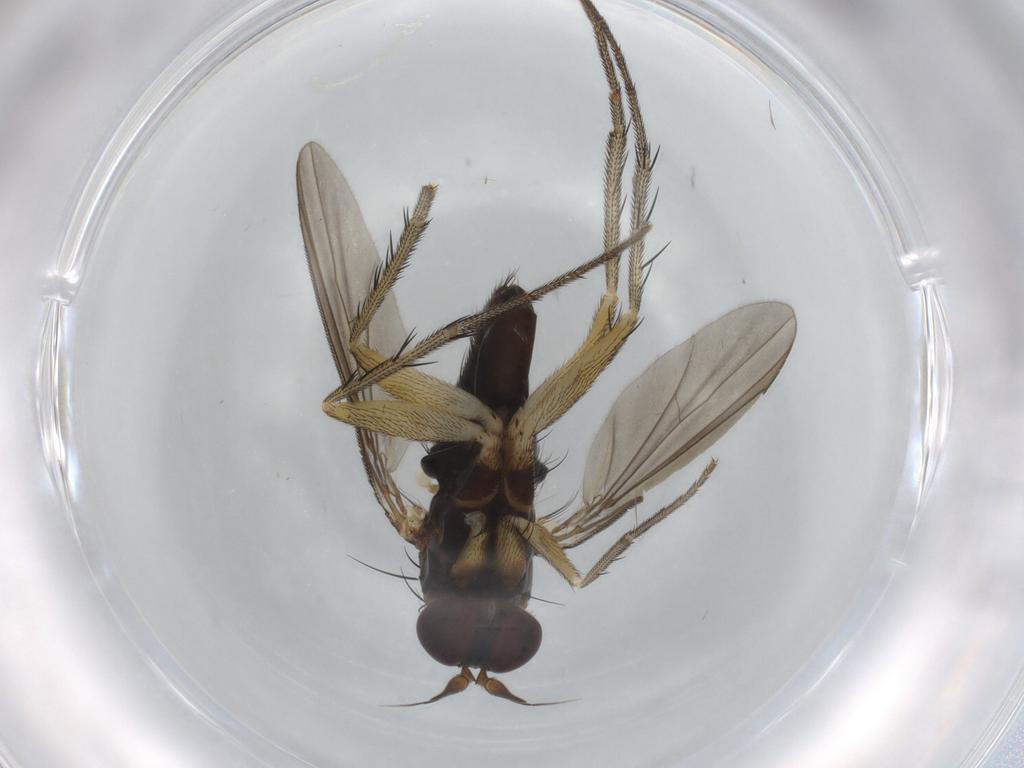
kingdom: Animalia
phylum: Arthropoda
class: Insecta
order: Diptera
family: Dolichopodidae
